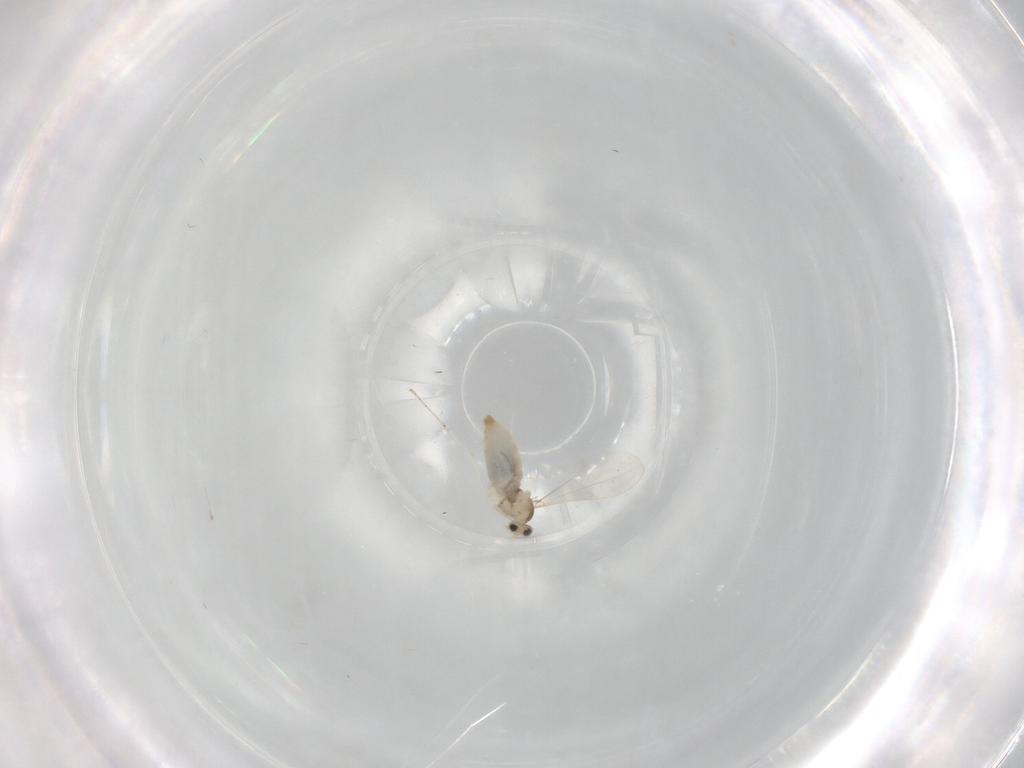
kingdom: Animalia
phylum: Arthropoda
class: Insecta
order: Diptera
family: Cecidomyiidae
